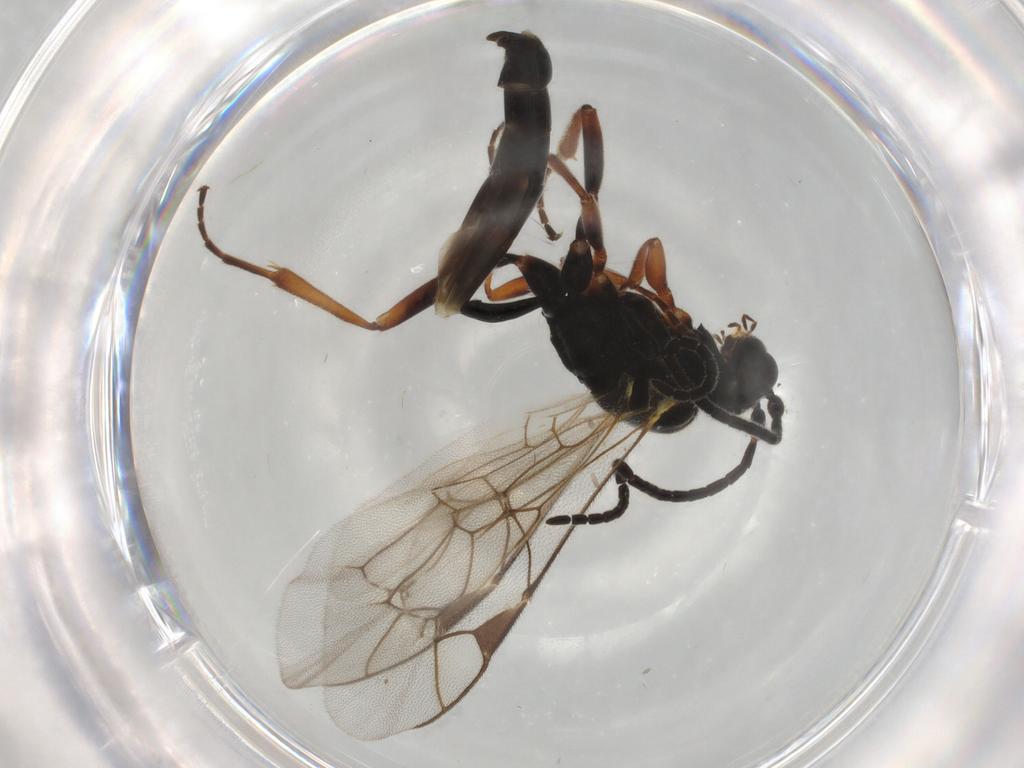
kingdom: Animalia
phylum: Arthropoda
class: Insecta
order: Hymenoptera
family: Ichneumonidae
